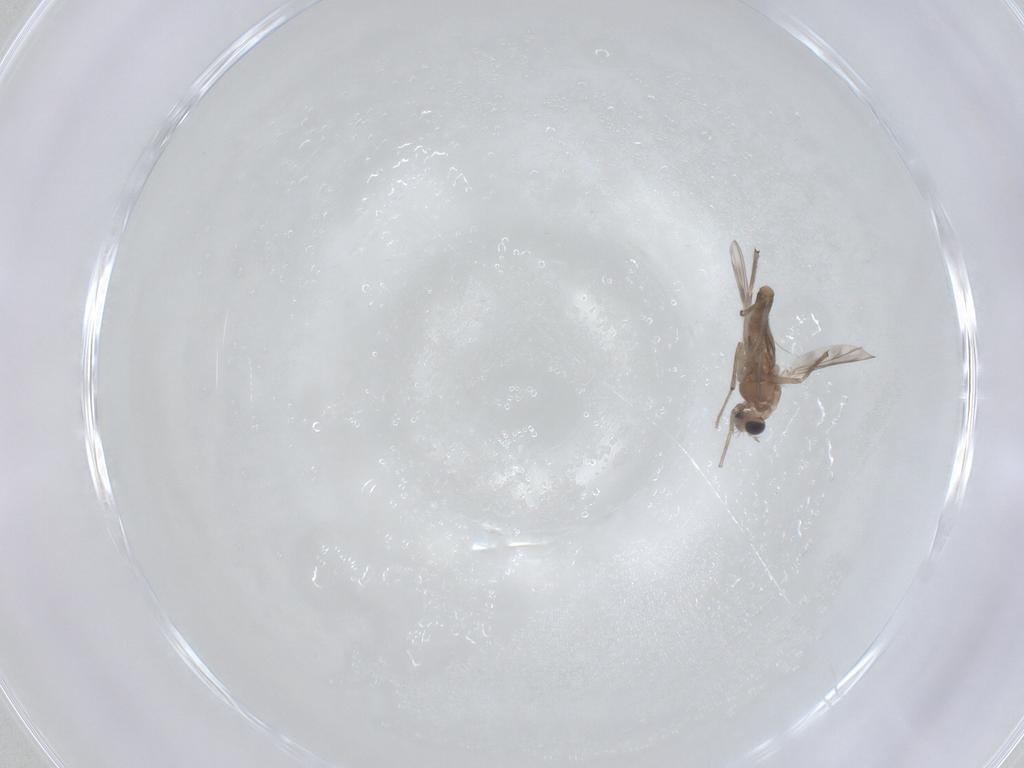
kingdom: Animalia
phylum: Arthropoda
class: Insecta
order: Diptera
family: Chironomidae
